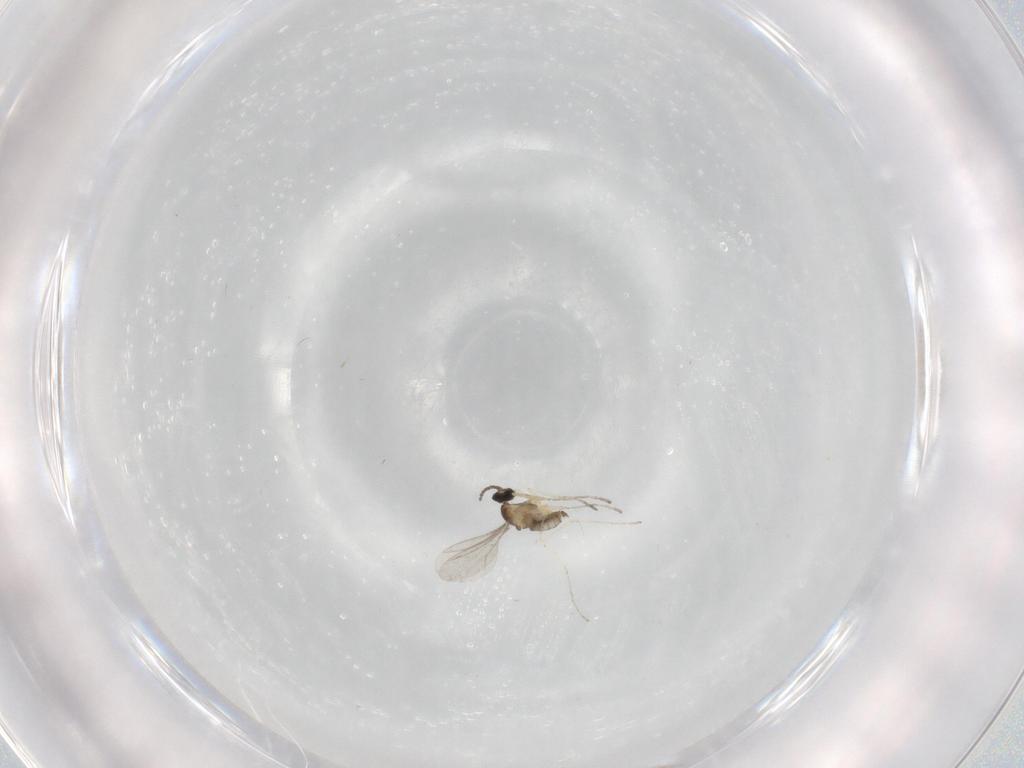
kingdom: Animalia
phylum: Arthropoda
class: Insecta
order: Diptera
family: Cecidomyiidae
